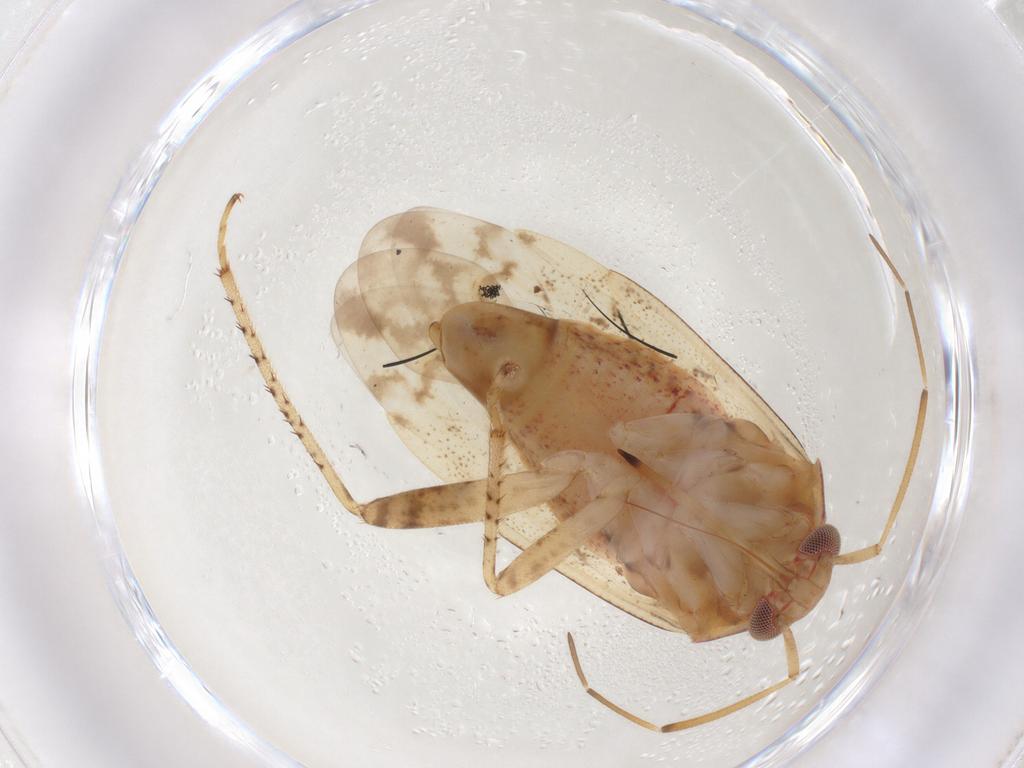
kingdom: Animalia
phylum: Arthropoda
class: Insecta
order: Hemiptera
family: Miridae
